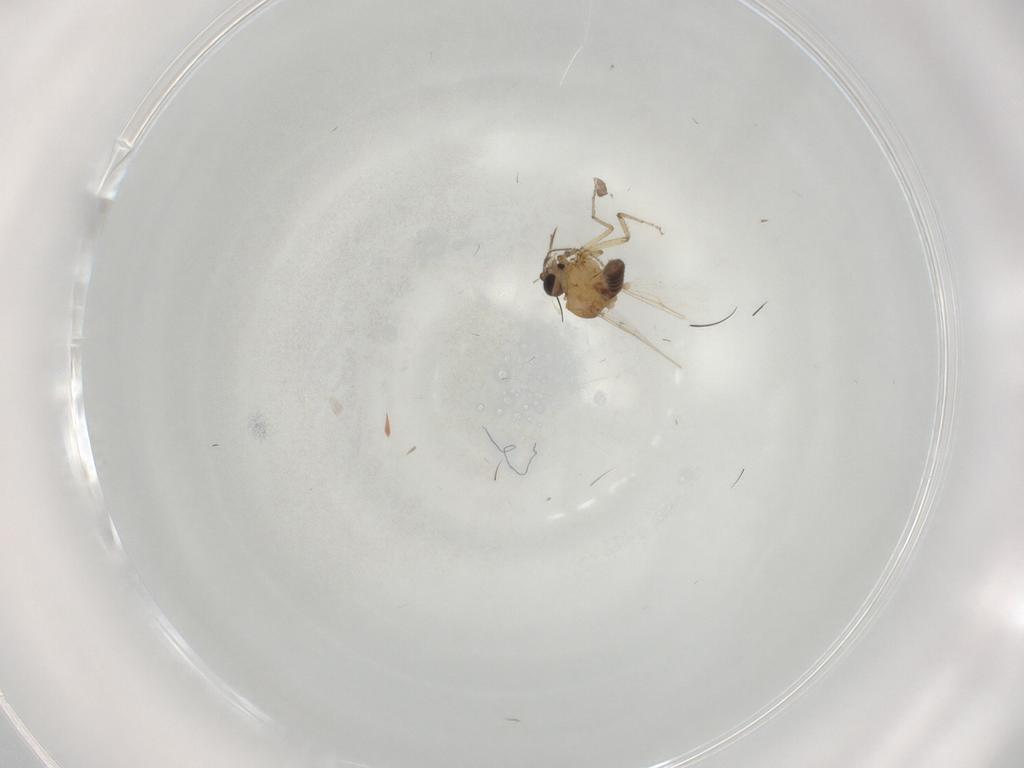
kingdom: Animalia
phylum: Arthropoda
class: Insecta
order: Diptera
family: Ceratopogonidae
